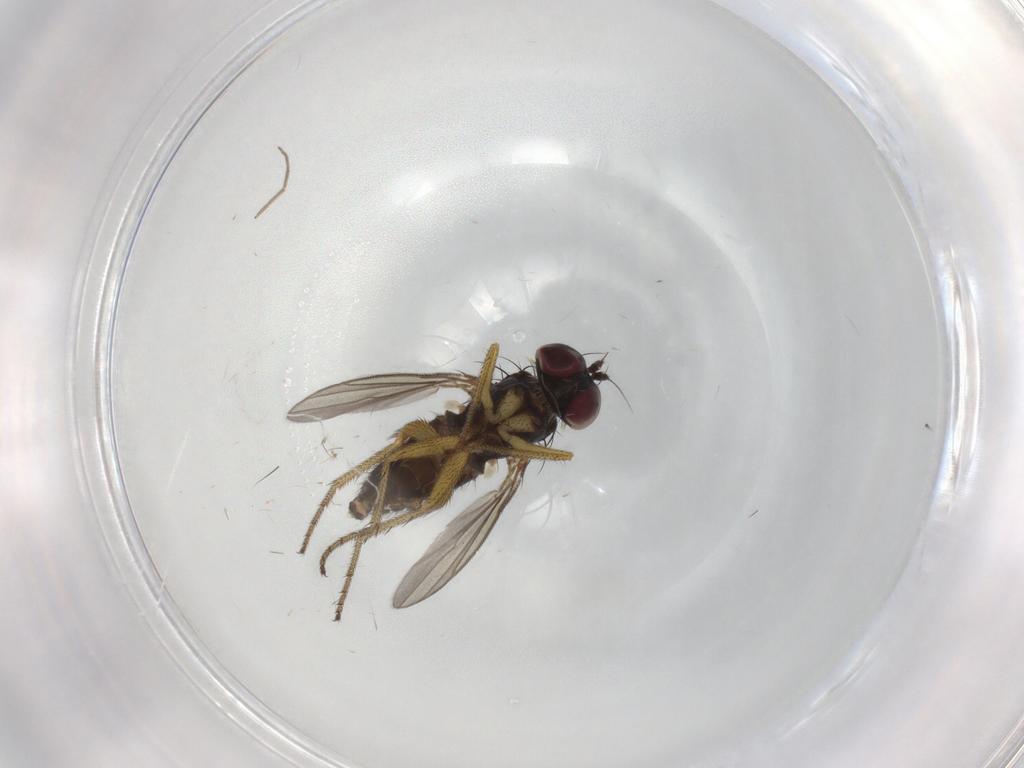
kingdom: Animalia
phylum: Arthropoda
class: Insecta
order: Diptera
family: Dolichopodidae
